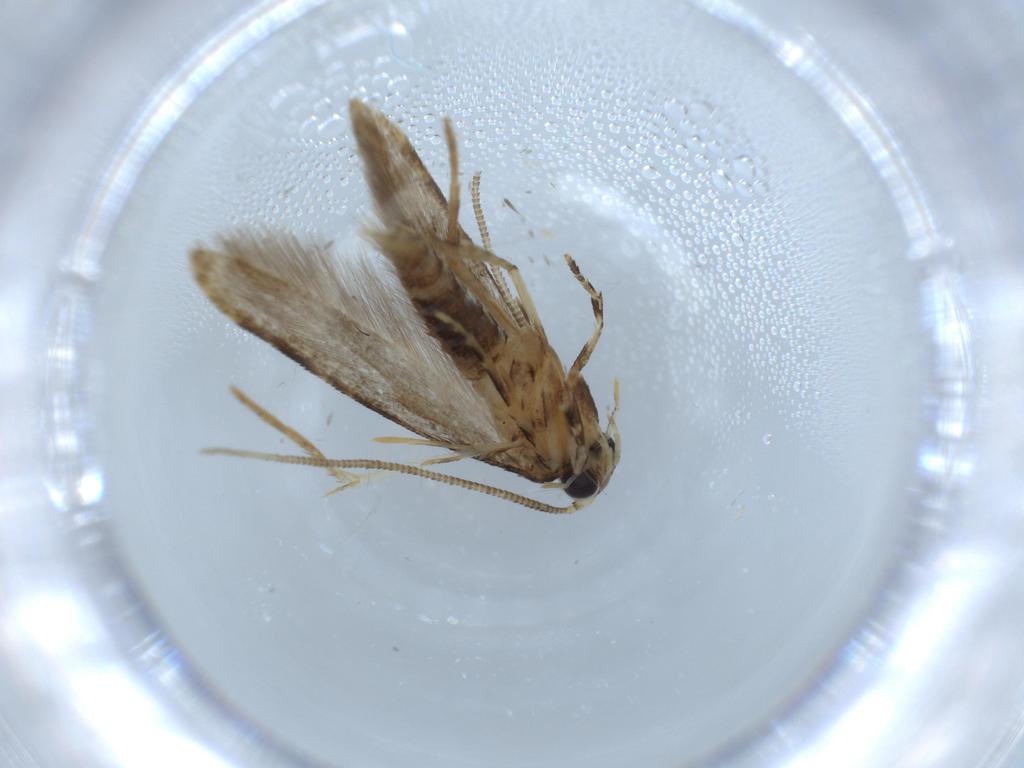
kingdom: Animalia
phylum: Arthropoda
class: Insecta
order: Lepidoptera
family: Tineidae
